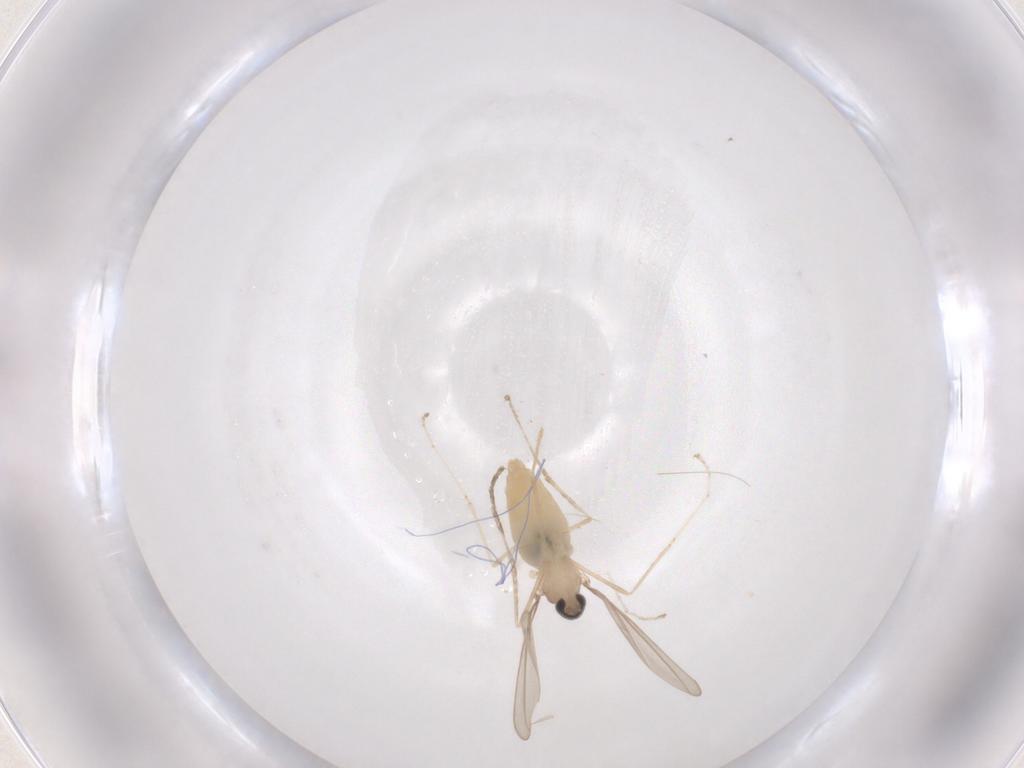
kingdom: Animalia
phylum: Arthropoda
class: Insecta
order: Diptera
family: Cecidomyiidae
